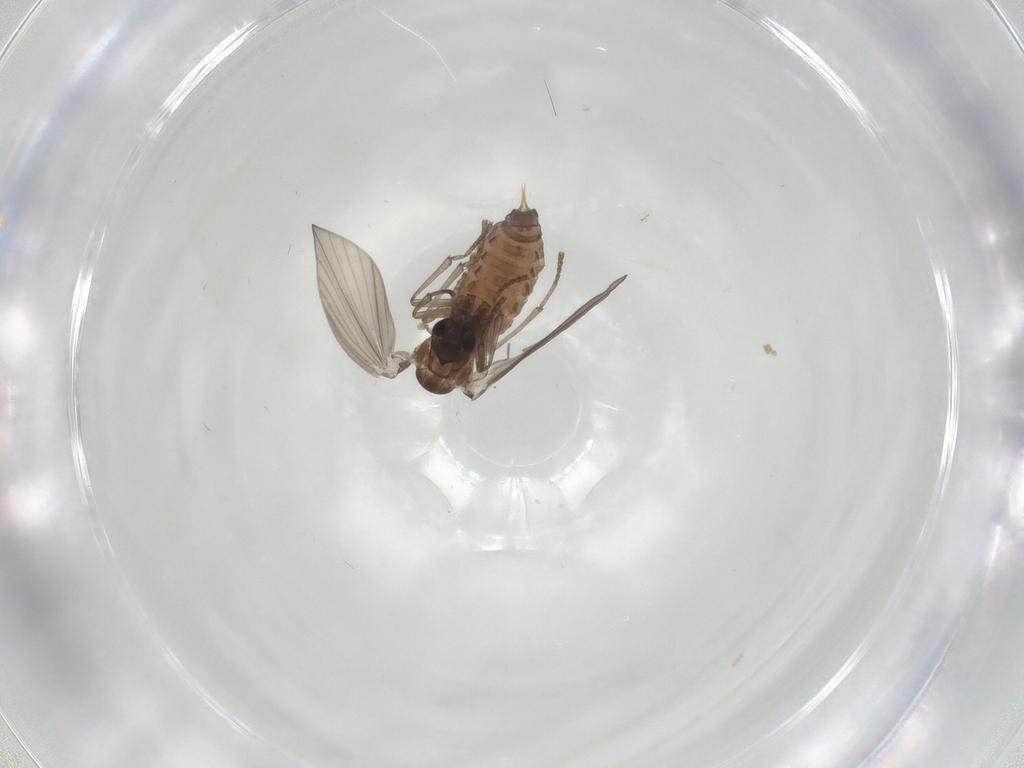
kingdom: Animalia
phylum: Arthropoda
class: Insecta
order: Diptera
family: Psychodidae
